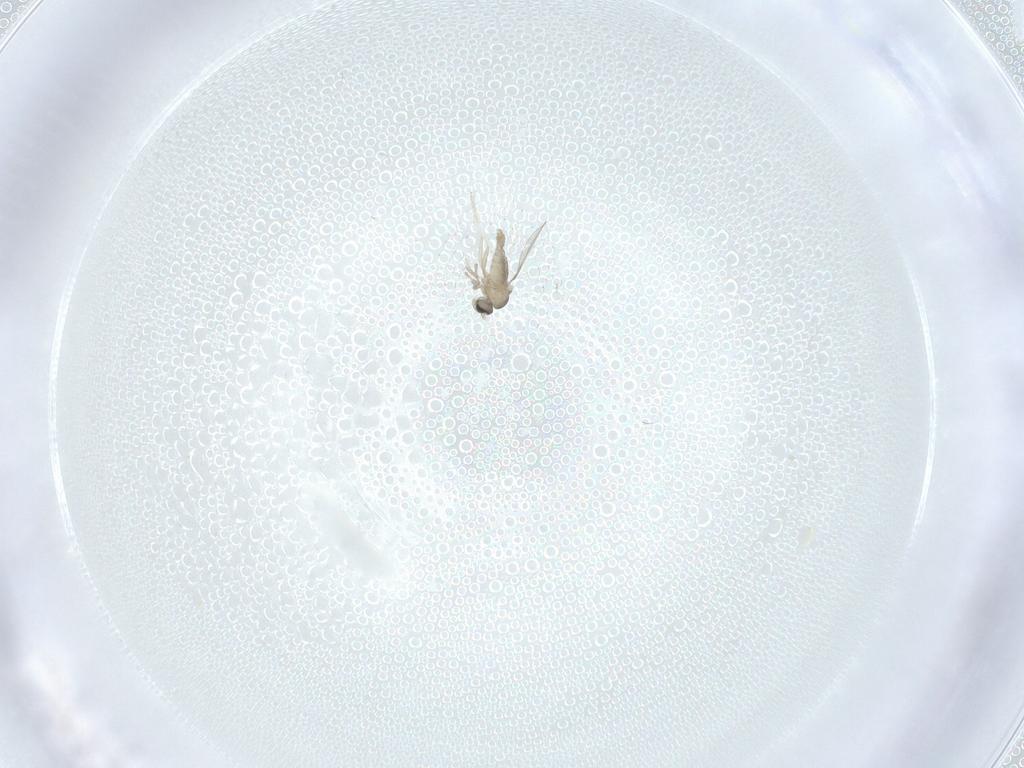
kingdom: Animalia
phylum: Arthropoda
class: Insecta
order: Diptera
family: Cecidomyiidae
